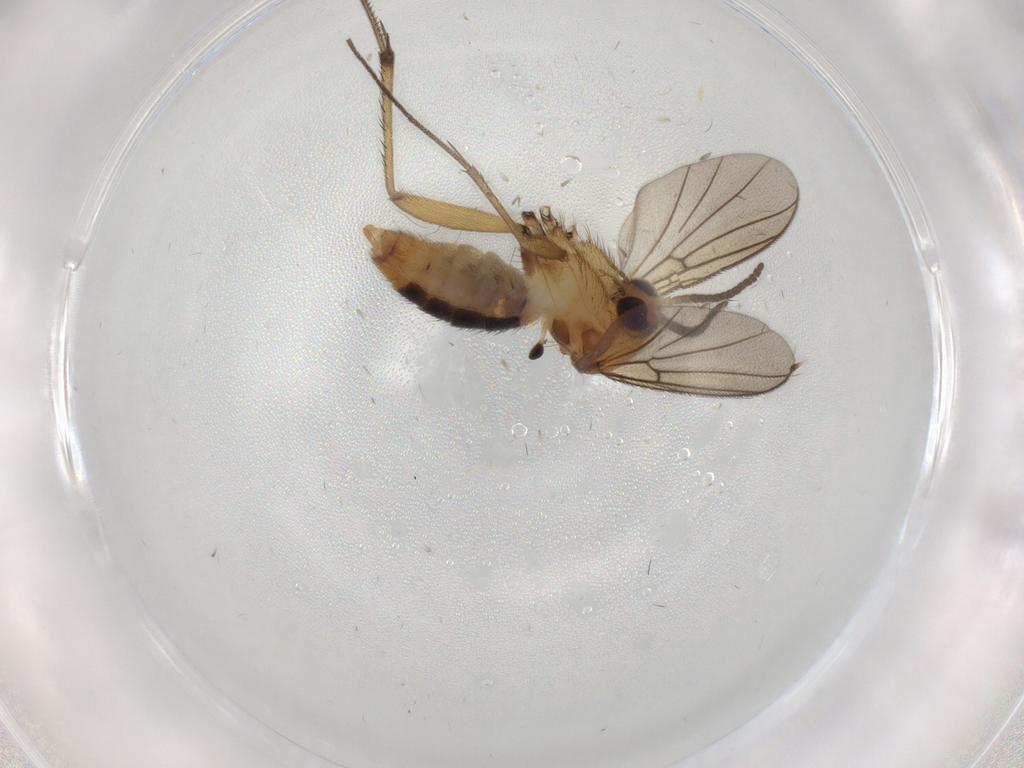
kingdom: Animalia
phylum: Arthropoda
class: Insecta
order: Diptera
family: Mycetophilidae
